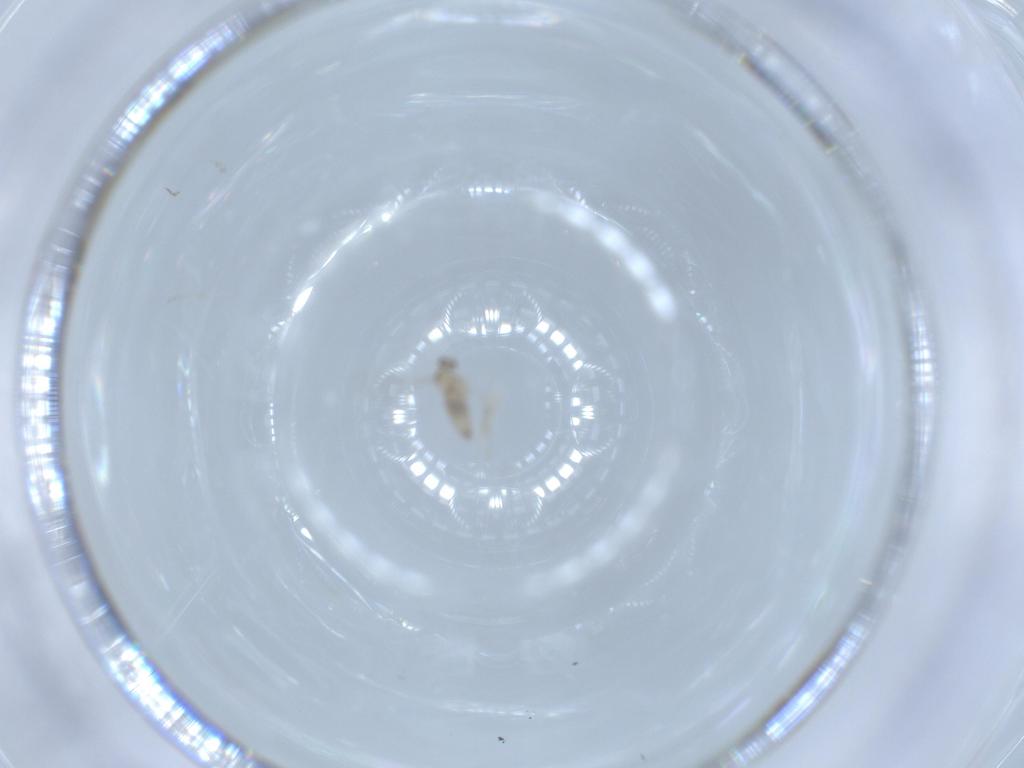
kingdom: Animalia
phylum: Arthropoda
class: Insecta
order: Diptera
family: Cecidomyiidae
